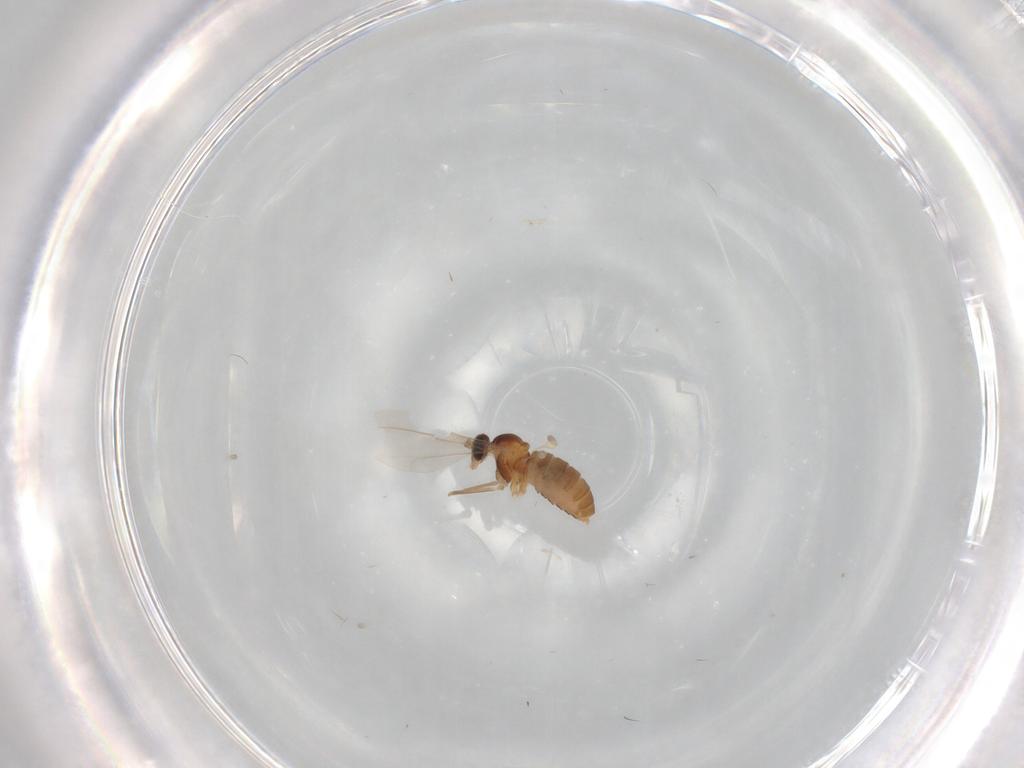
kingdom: Animalia
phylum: Arthropoda
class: Insecta
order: Diptera
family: Cecidomyiidae
